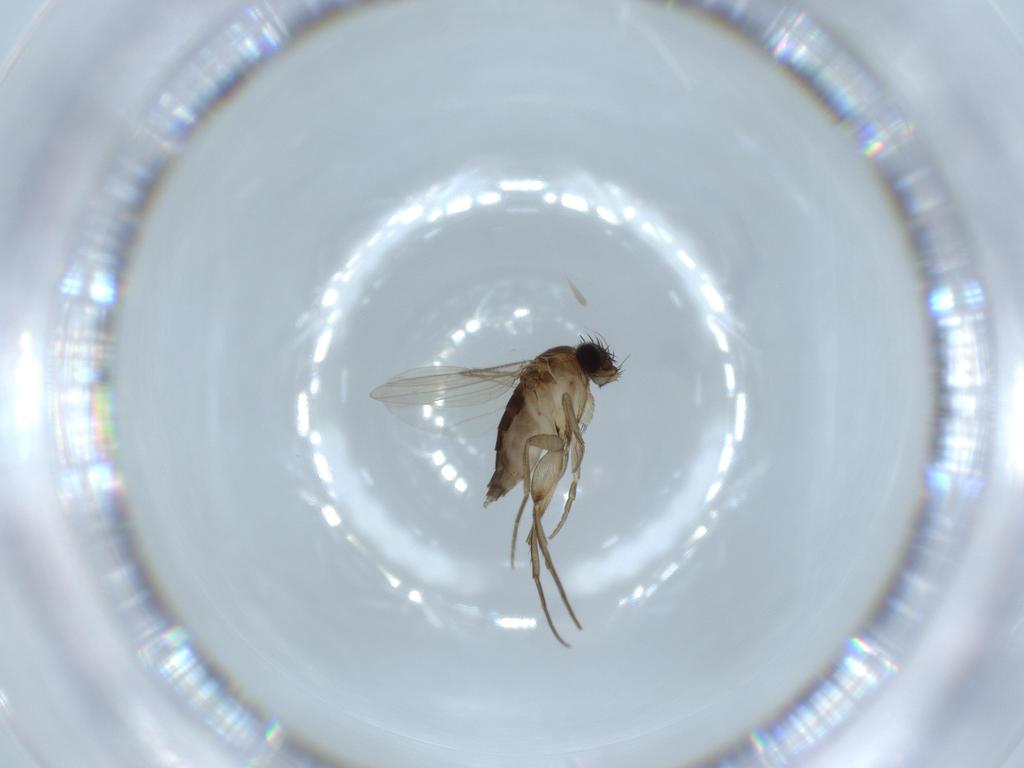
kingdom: Animalia
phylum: Arthropoda
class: Insecta
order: Diptera
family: Phoridae
